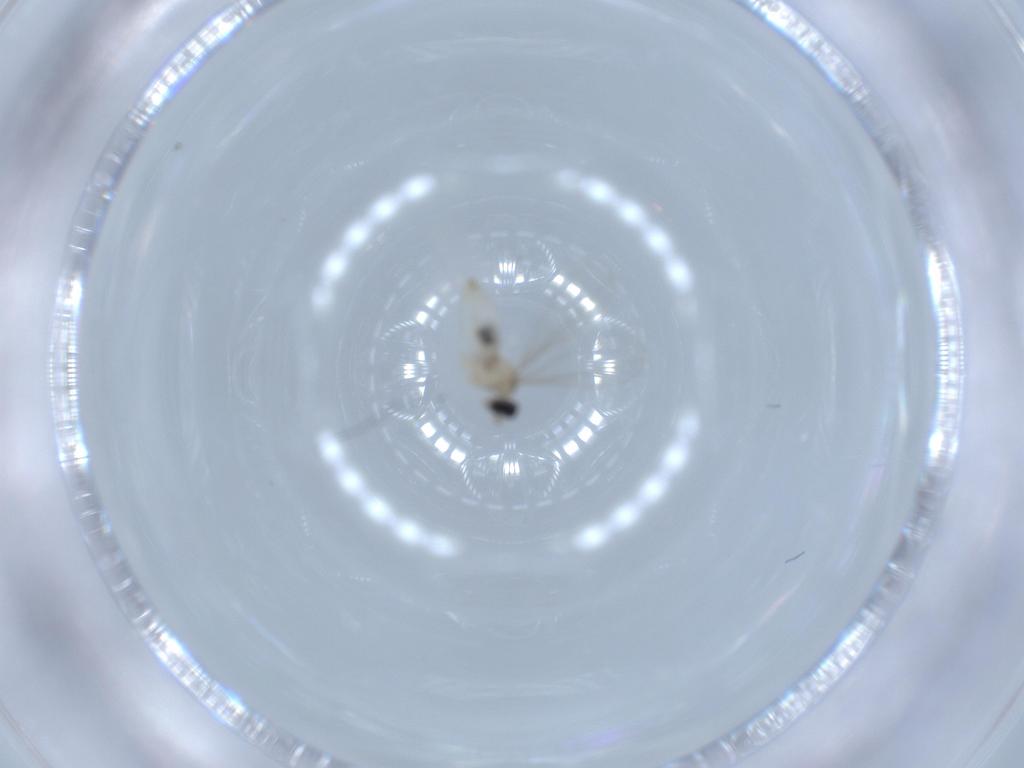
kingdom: Animalia
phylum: Arthropoda
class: Insecta
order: Diptera
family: Cecidomyiidae
